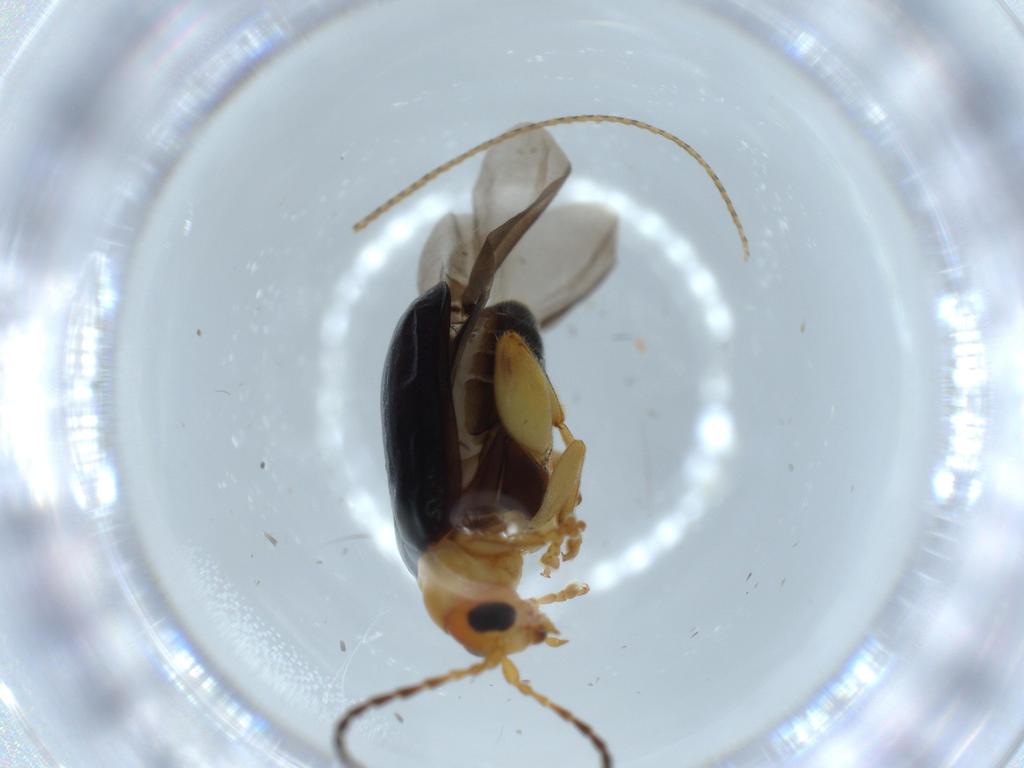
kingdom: Animalia
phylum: Arthropoda
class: Insecta
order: Coleoptera
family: Chrysomelidae
